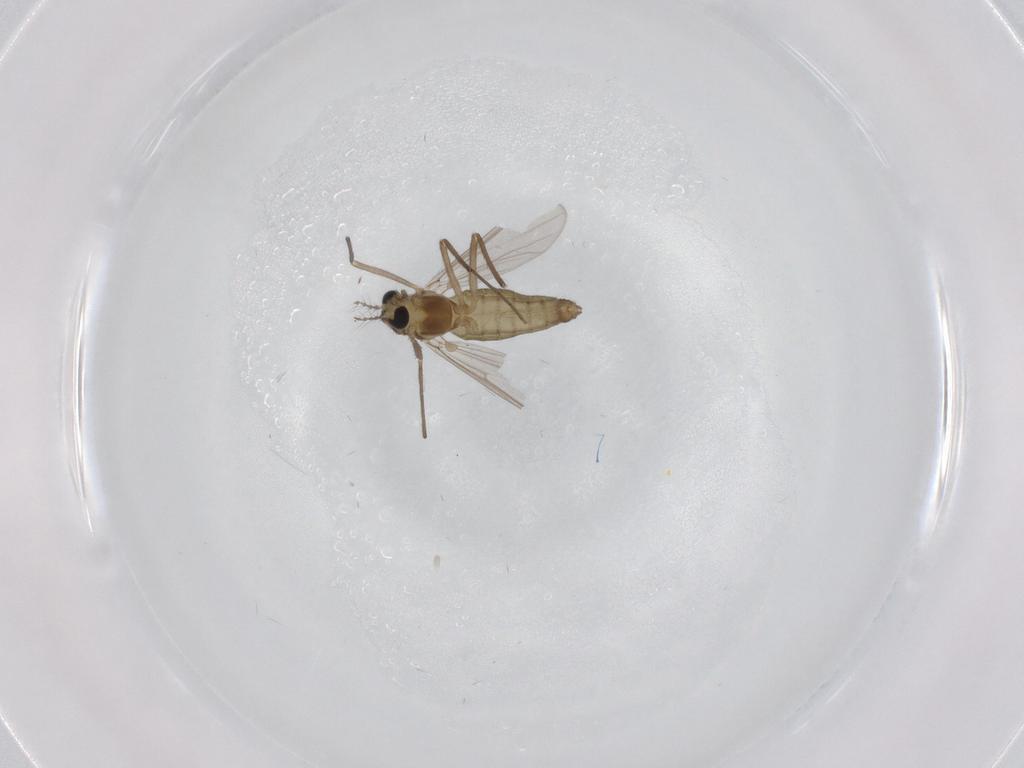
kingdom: Animalia
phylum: Arthropoda
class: Insecta
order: Diptera
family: Chironomidae
